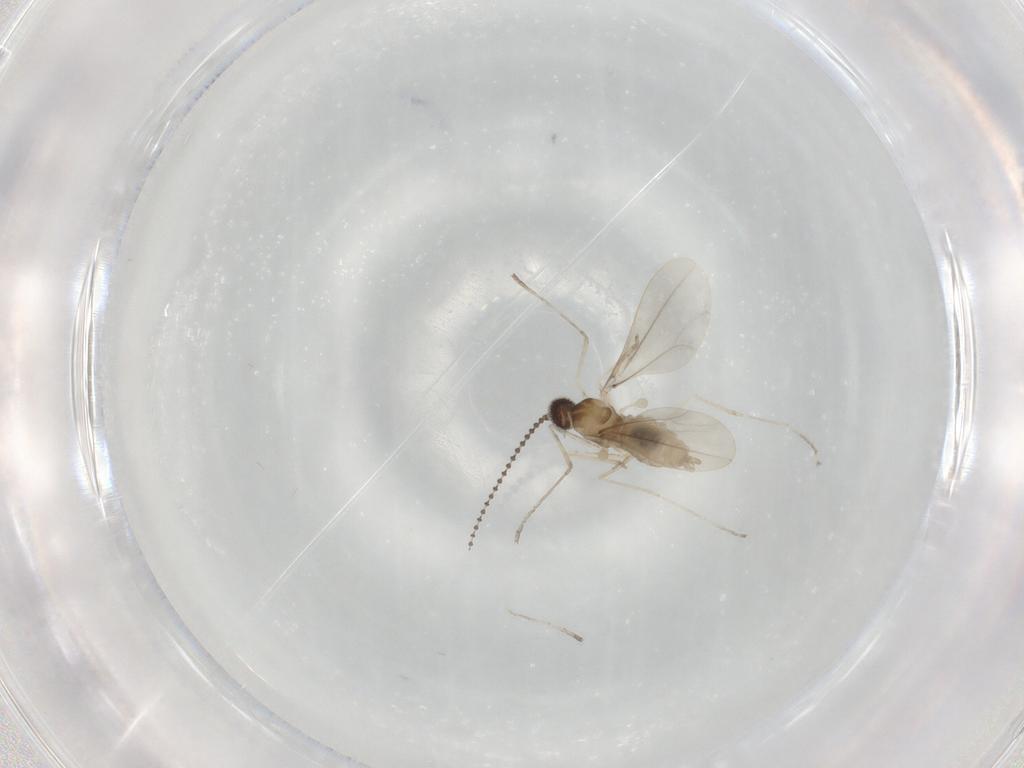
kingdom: Animalia
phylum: Arthropoda
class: Insecta
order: Diptera
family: Cecidomyiidae
